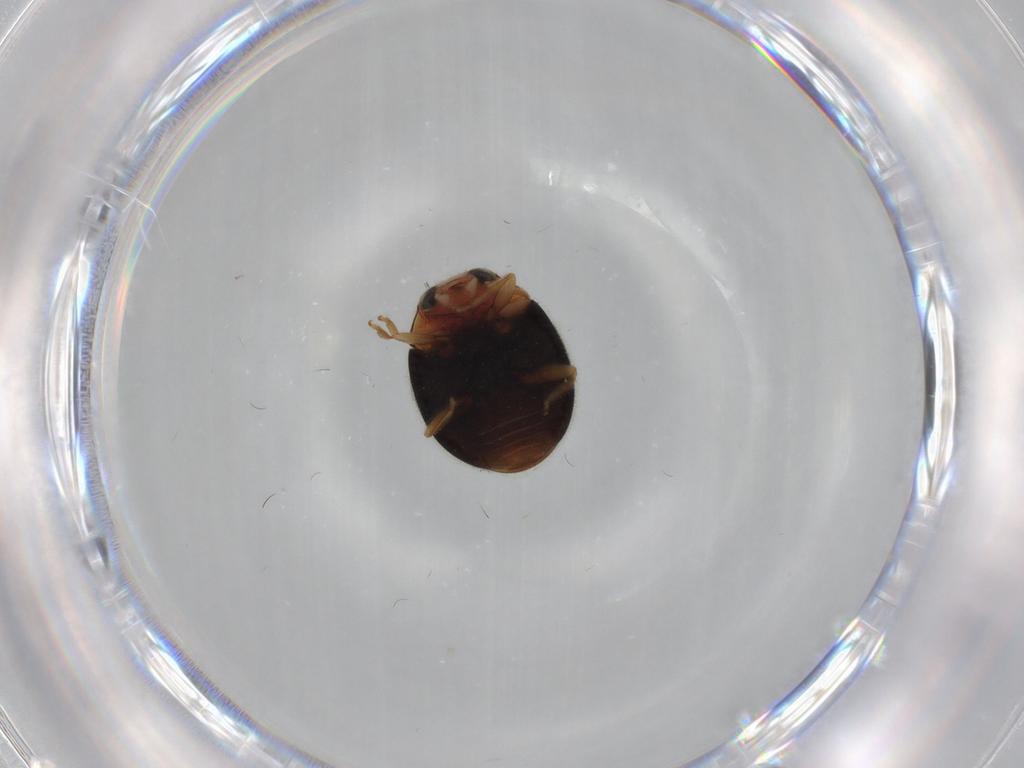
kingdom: Animalia
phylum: Arthropoda
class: Insecta
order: Coleoptera
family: Coccinellidae
